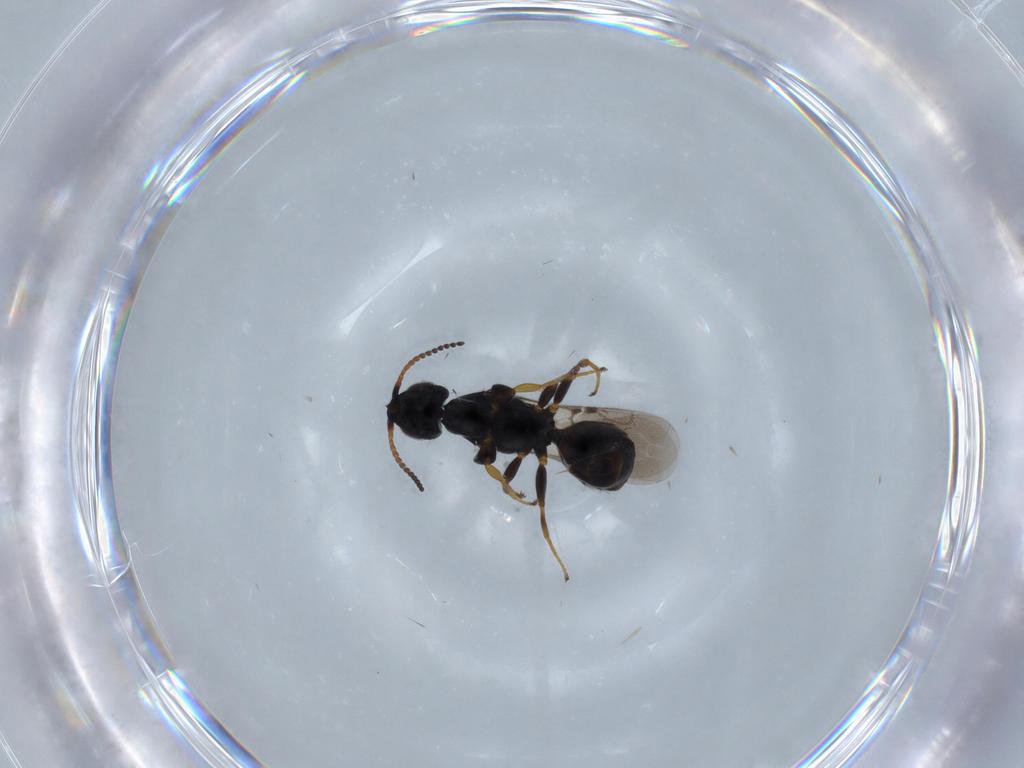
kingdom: Animalia
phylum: Arthropoda
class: Insecta
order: Hymenoptera
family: Bethylidae
